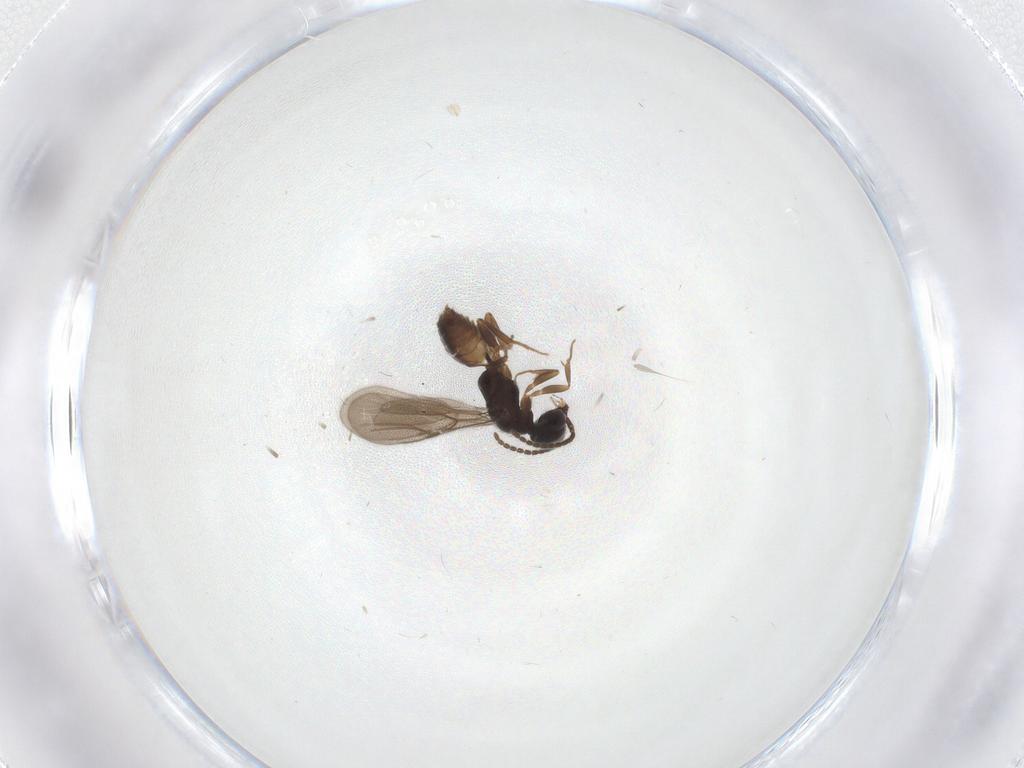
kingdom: Animalia
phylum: Arthropoda
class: Insecta
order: Hymenoptera
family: Bethylidae
